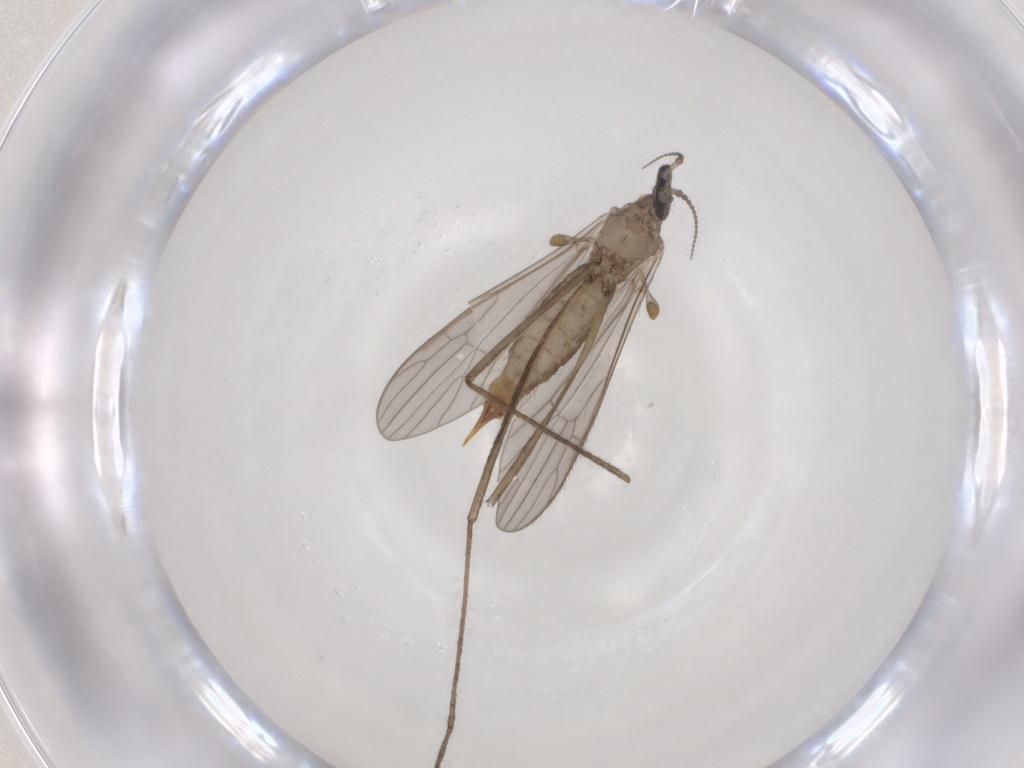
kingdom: Animalia
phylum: Arthropoda
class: Insecta
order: Diptera
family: Limoniidae
